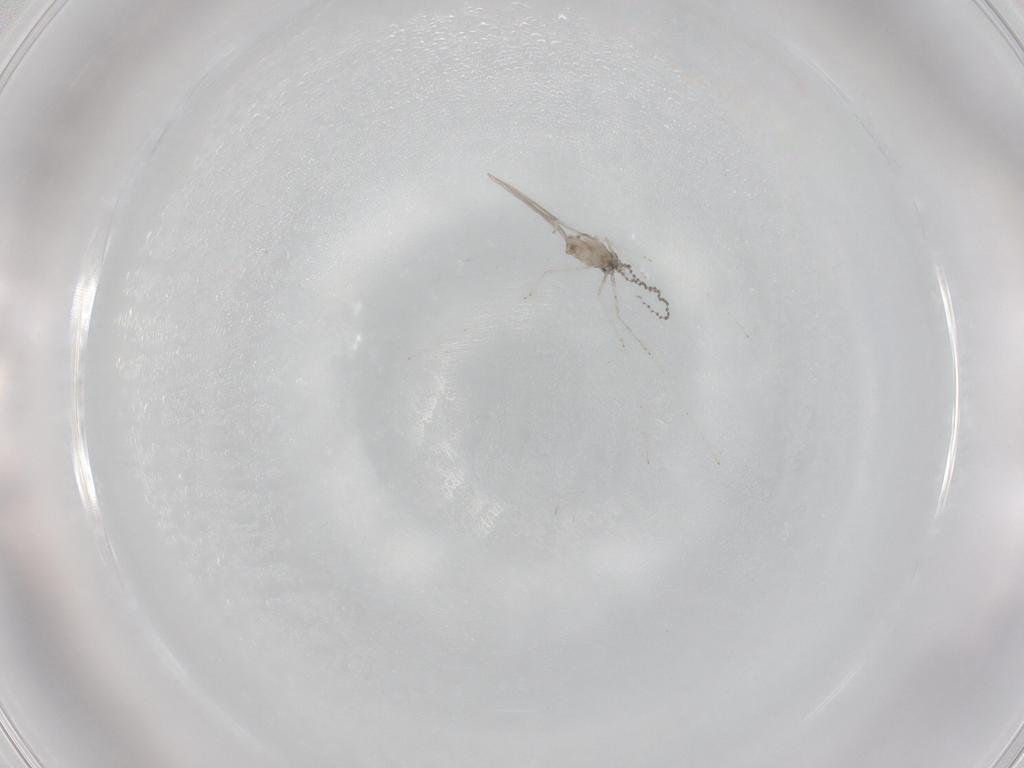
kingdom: Animalia
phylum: Arthropoda
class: Insecta
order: Diptera
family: Cecidomyiidae
